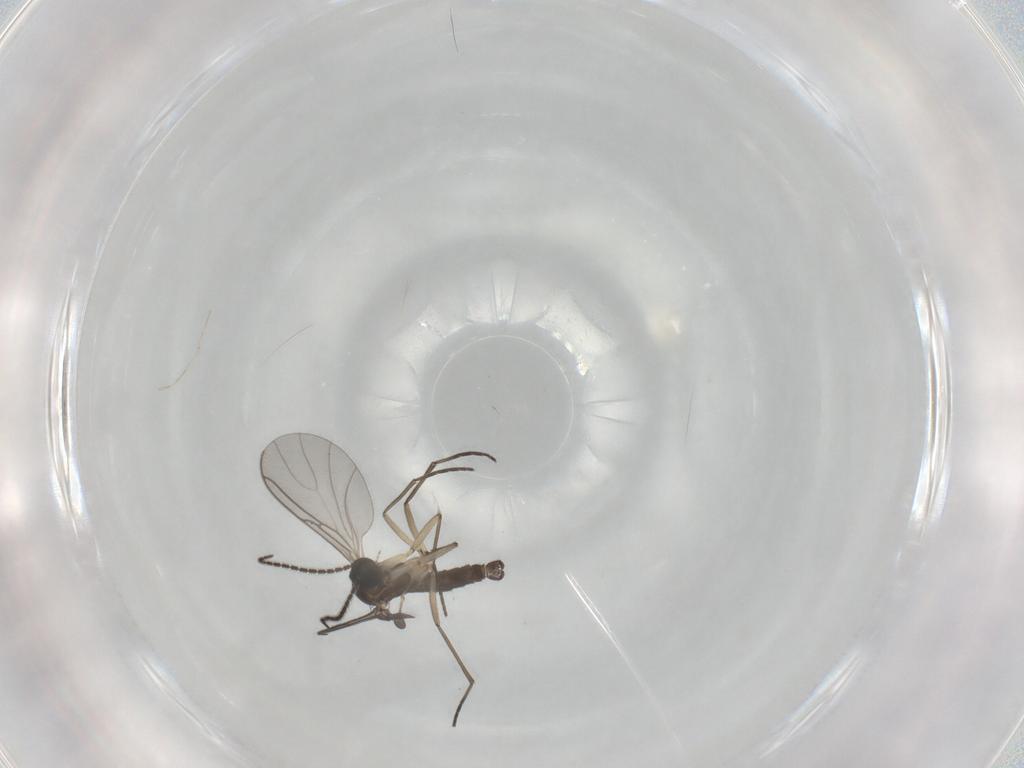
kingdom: Animalia
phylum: Arthropoda
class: Insecta
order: Diptera
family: Sciaridae
